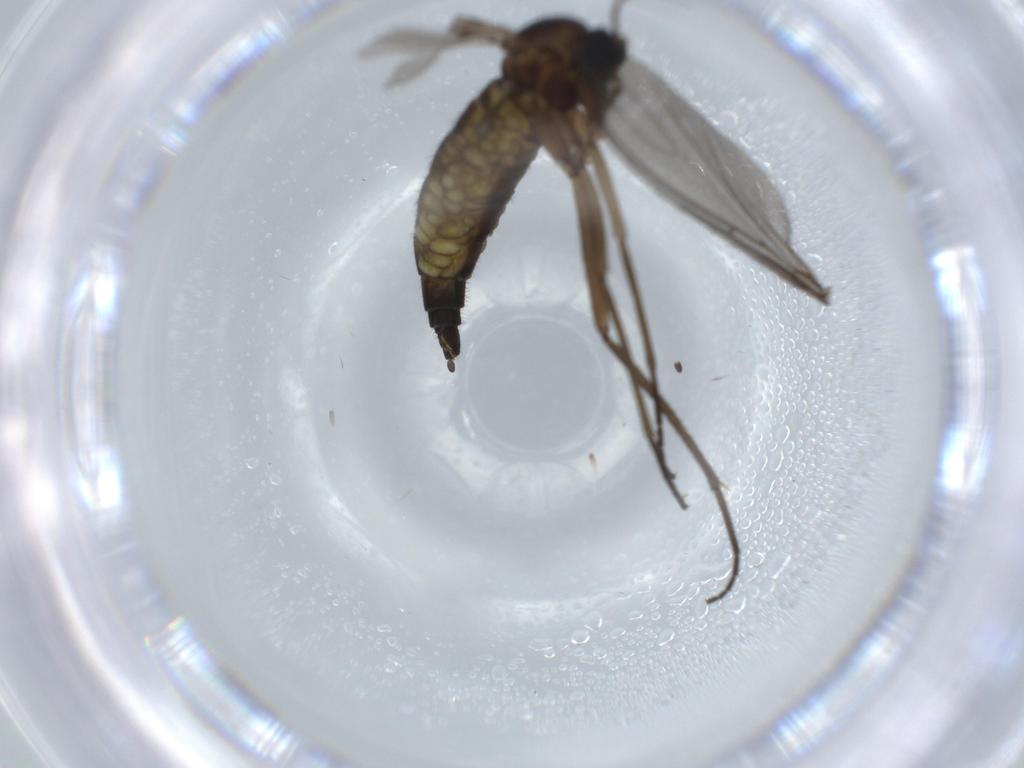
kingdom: Animalia
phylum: Arthropoda
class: Insecta
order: Diptera
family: Sciaridae
